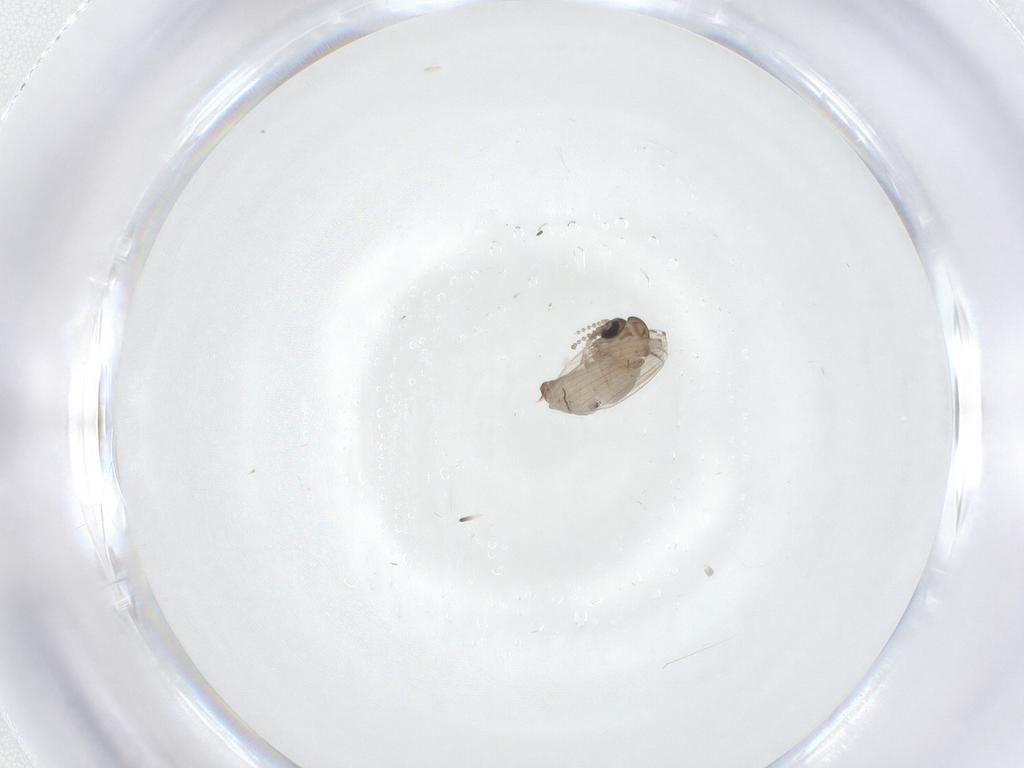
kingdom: Animalia
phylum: Arthropoda
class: Insecta
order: Diptera
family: Psychodidae
